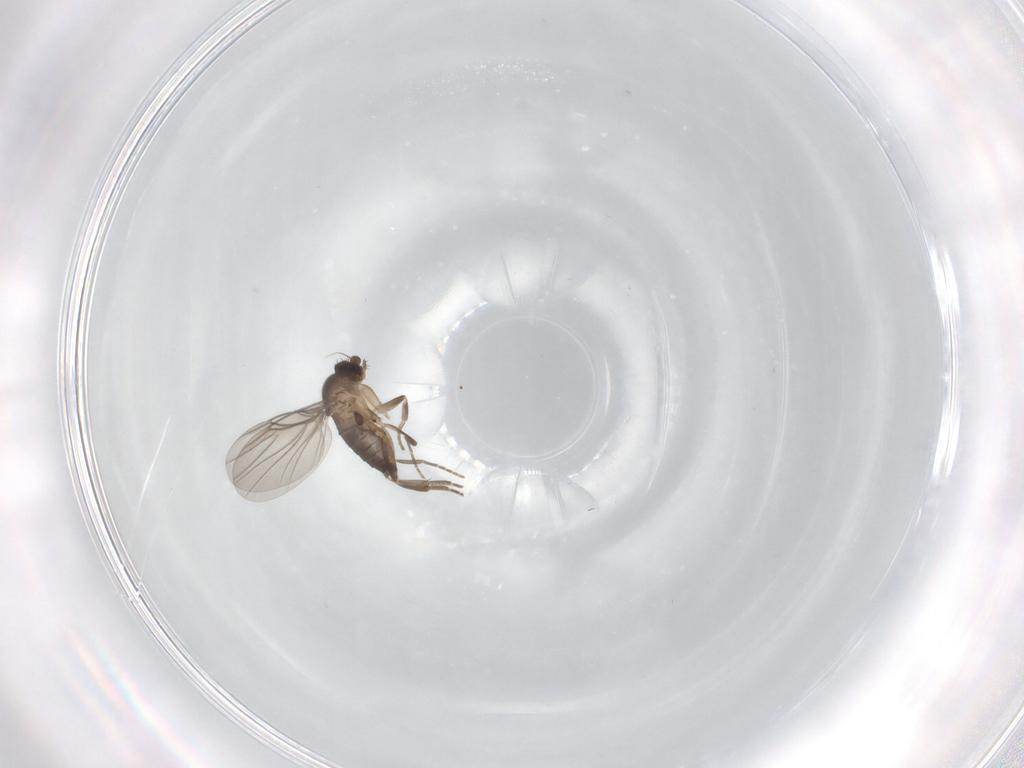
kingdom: Animalia
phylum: Arthropoda
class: Insecta
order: Diptera
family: Phoridae
